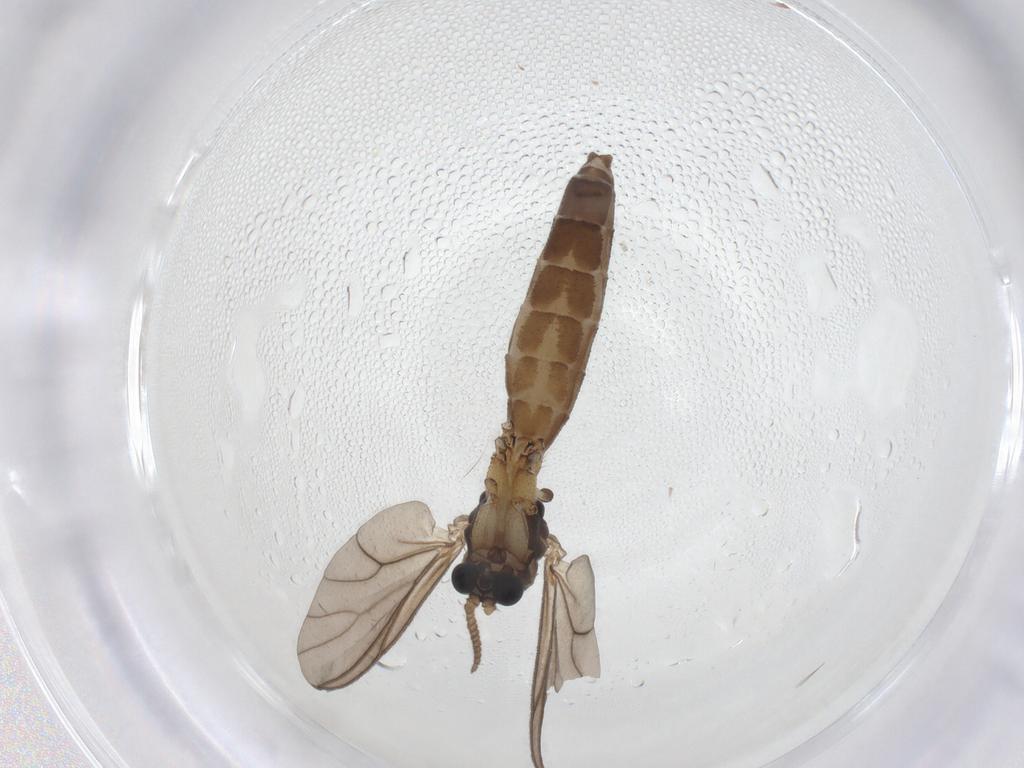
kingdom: Animalia
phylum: Arthropoda
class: Insecta
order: Diptera
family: Mycetophilidae
